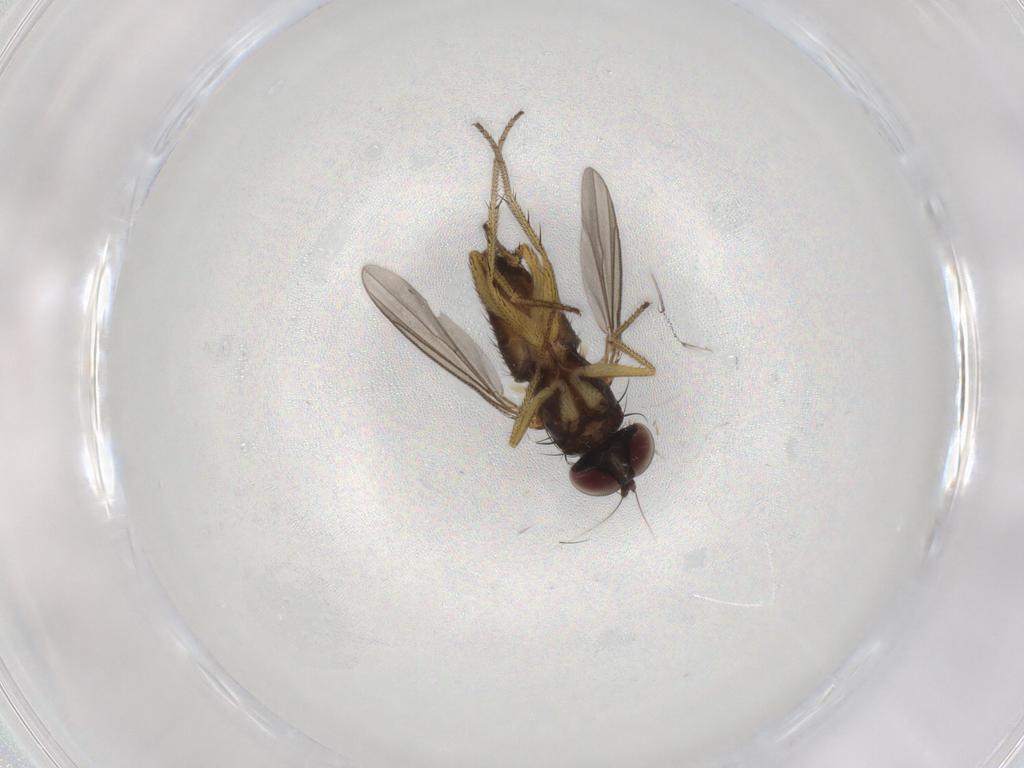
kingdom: Animalia
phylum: Arthropoda
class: Insecta
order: Diptera
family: Dolichopodidae
